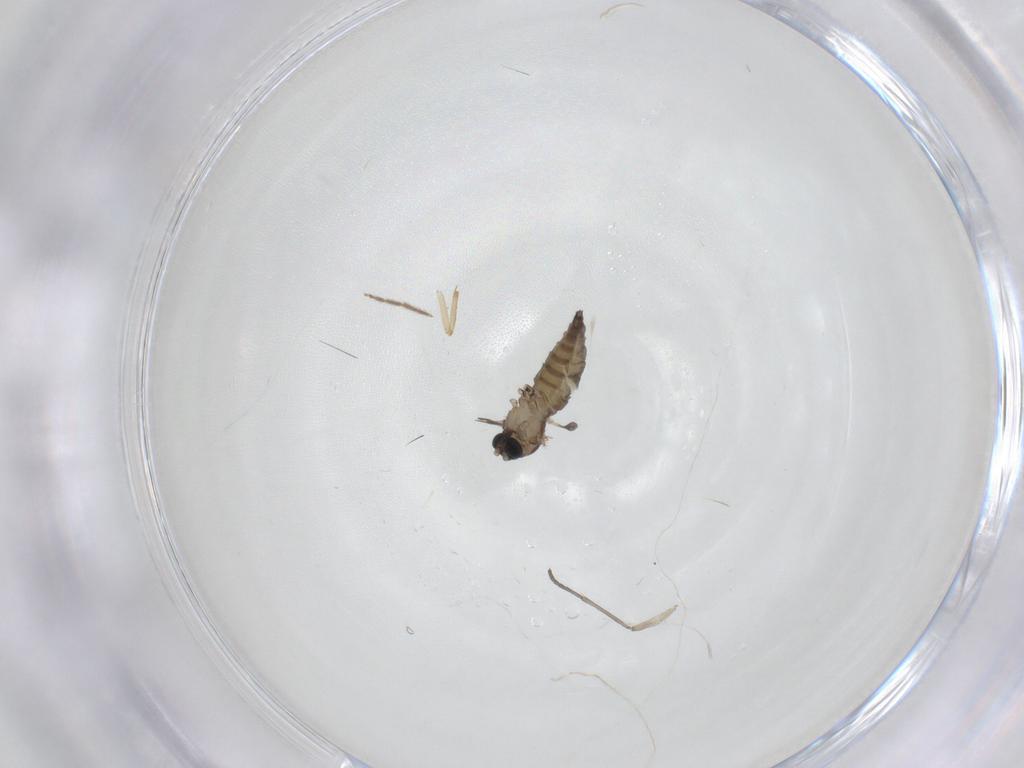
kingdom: Animalia
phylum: Arthropoda
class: Insecta
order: Diptera
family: Sciaridae
